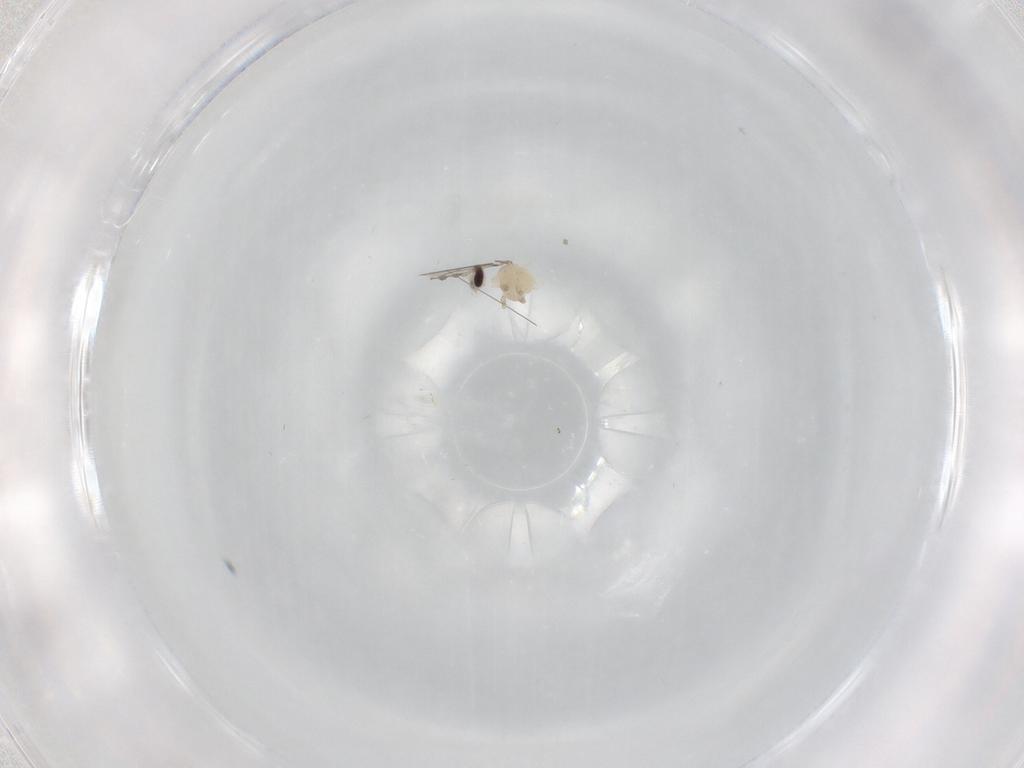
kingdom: Animalia
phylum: Arthropoda
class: Insecta
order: Diptera
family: Cecidomyiidae
